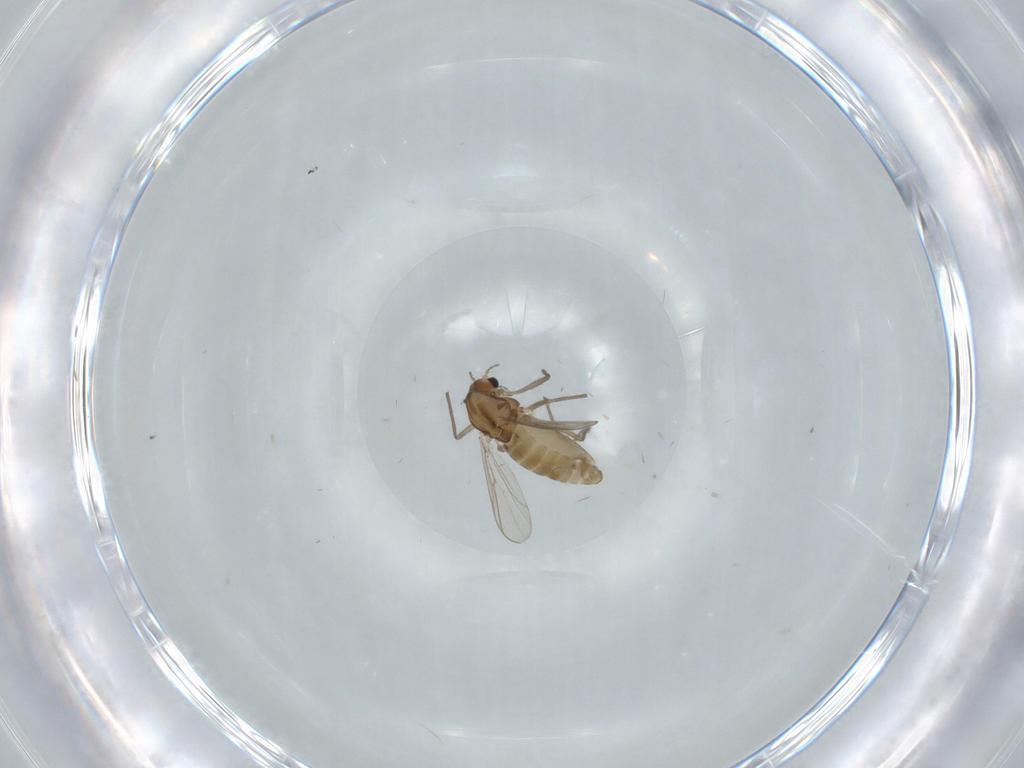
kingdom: Animalia
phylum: Arthropoda
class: Insecta
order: Diptera
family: Chironomidae
